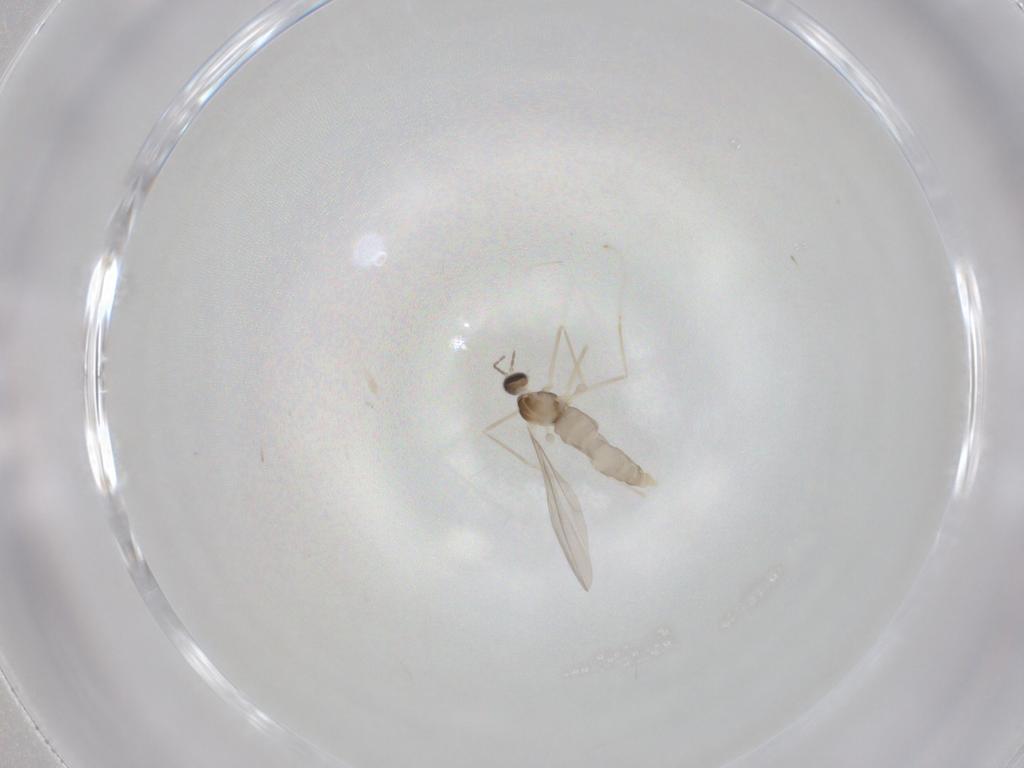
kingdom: Animalia
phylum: Arthropoda
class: Insecta
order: Diptera
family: Cecidomyiidae
